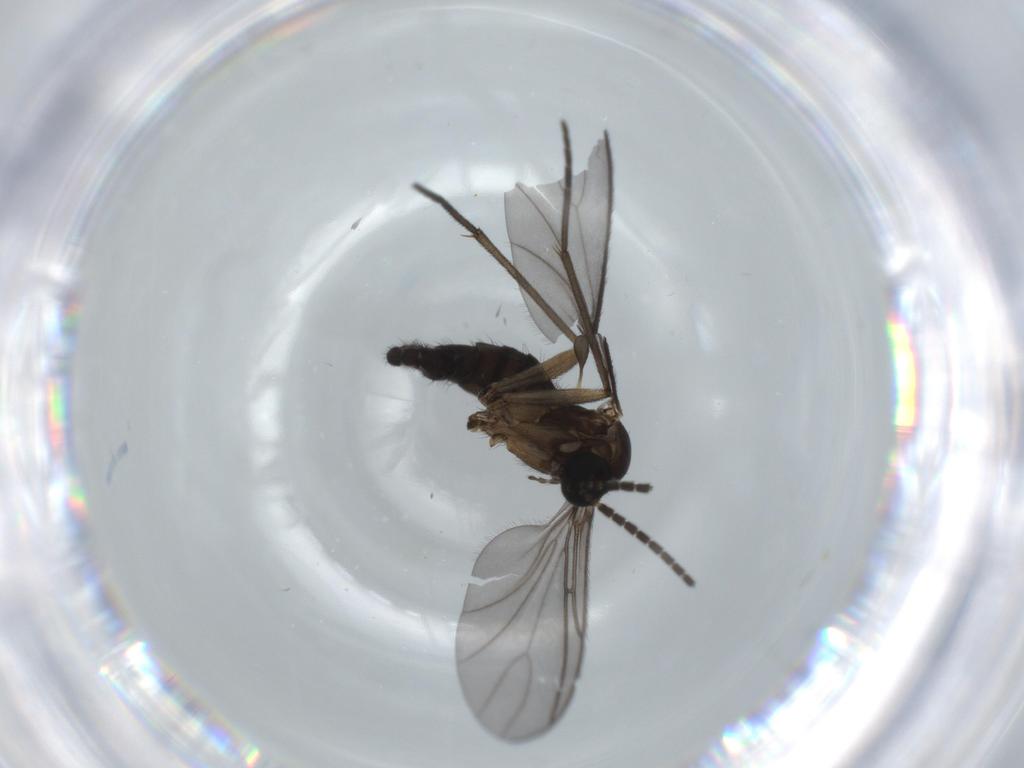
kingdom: Animalia
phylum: Arthropoda
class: Insecta
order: Diptera
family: Sciaridae
